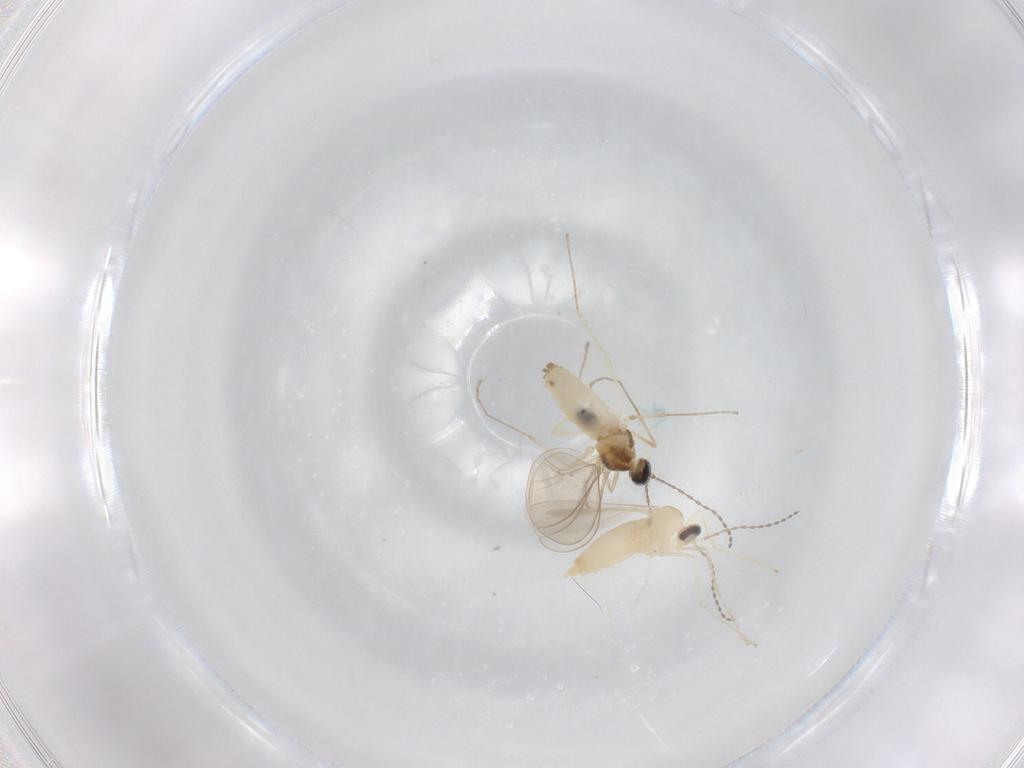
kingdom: Animalia
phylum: Arthropoda
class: Insecta
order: Diptera
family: Cecidomyiidae
